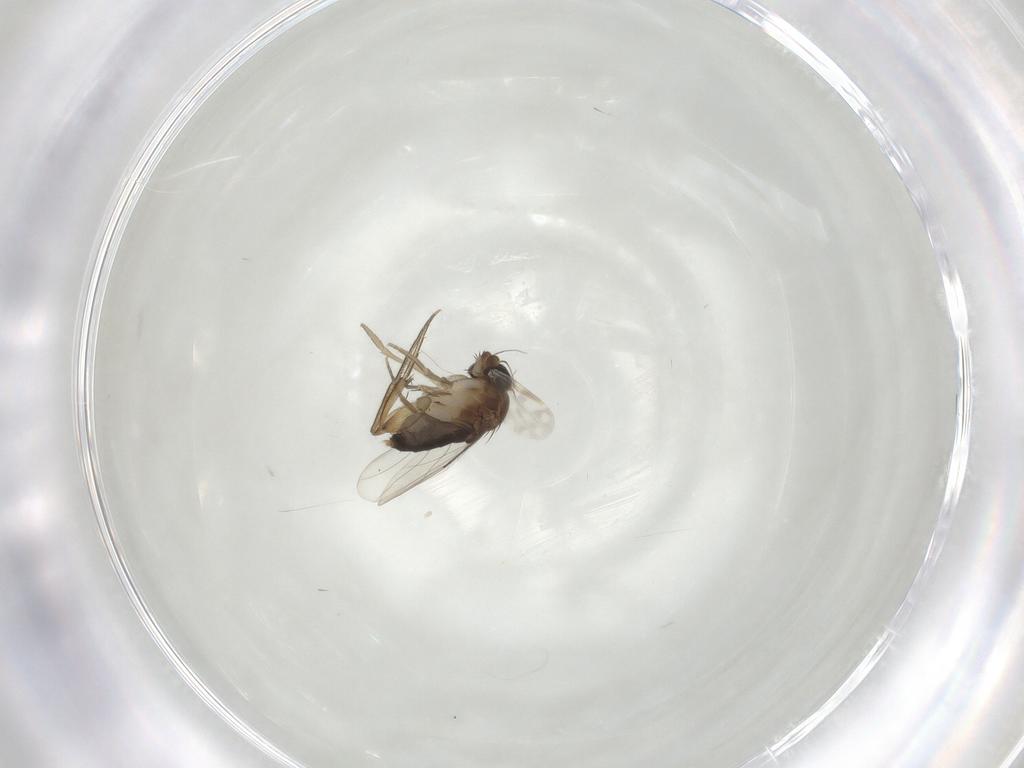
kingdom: Animalia
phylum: Arthropoda
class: Insecta
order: Diptera
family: Phoridae
